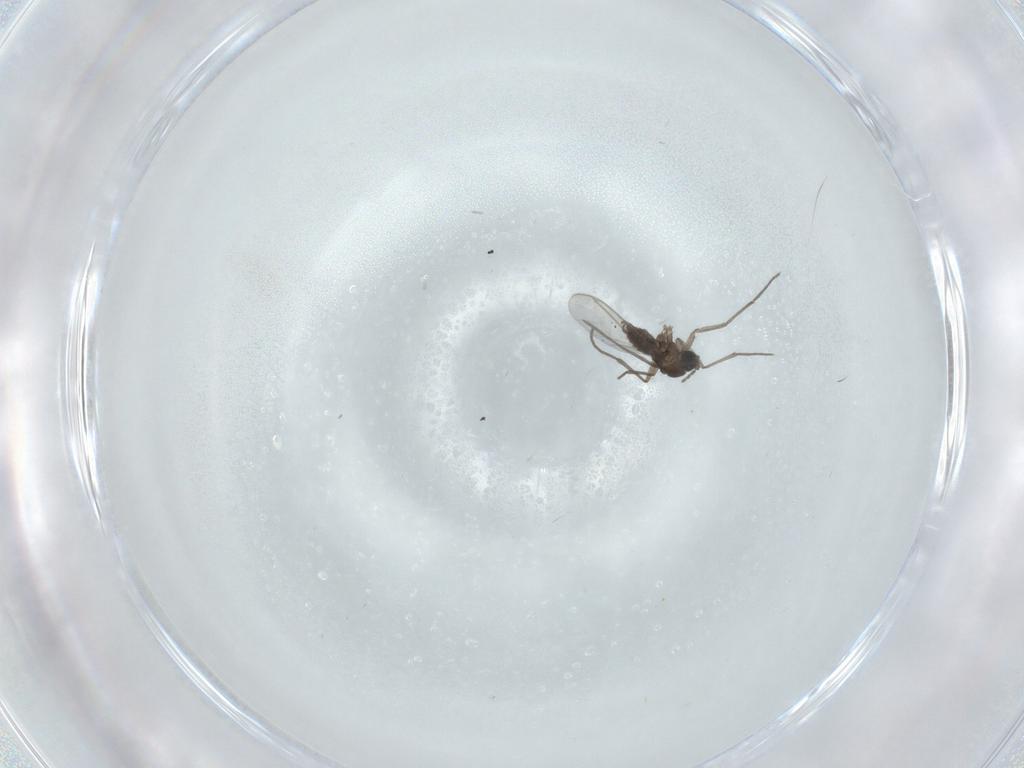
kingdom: Animalia
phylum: Arthropoda
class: Insecta
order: Diptera
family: Sciaridae
